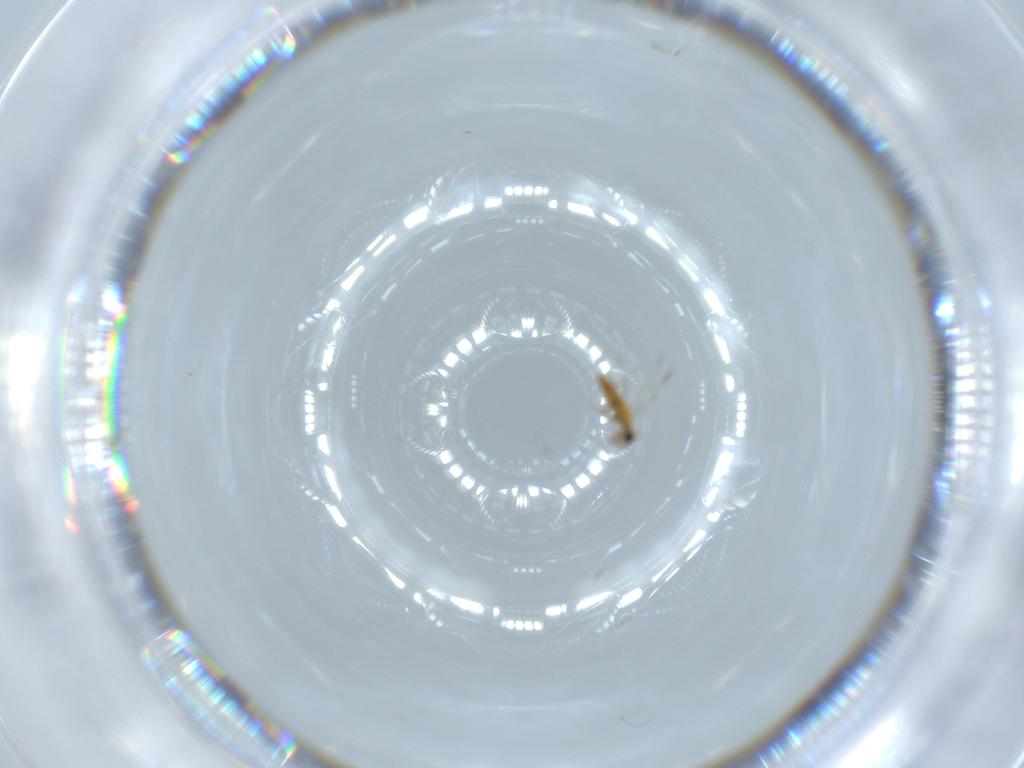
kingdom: Animalia
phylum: Arthropoda
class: Insecta
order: Hymenoptera
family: Trichogrammatidae
